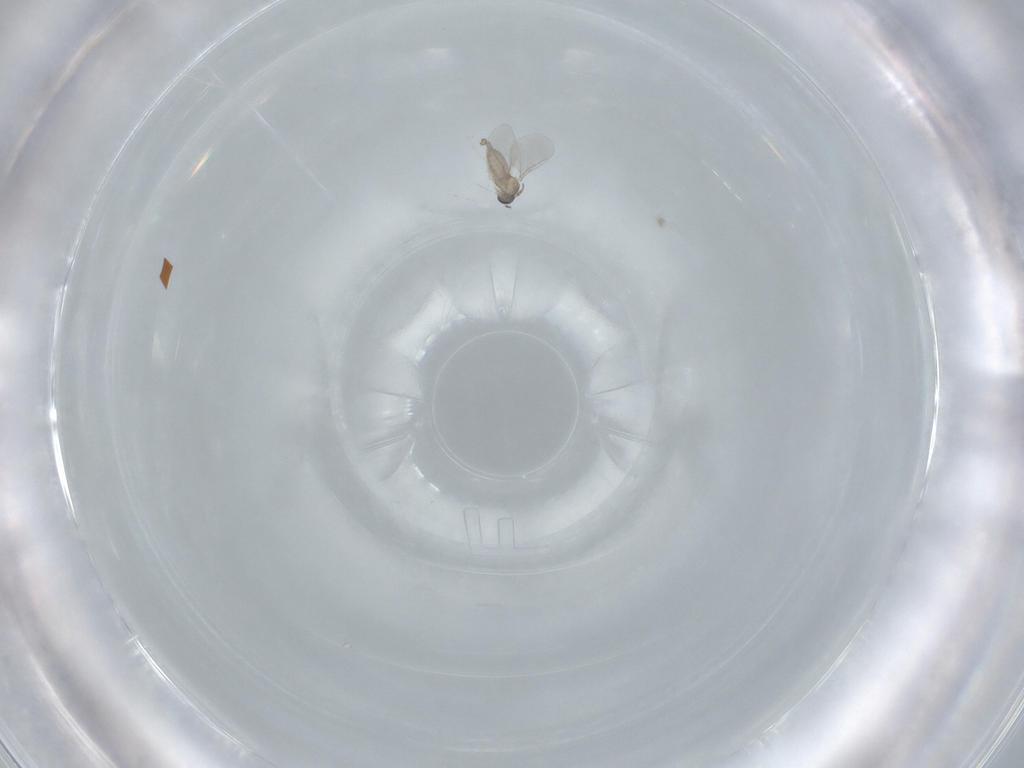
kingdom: Animalia
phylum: Arthropoda
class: Insecta
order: Diptera
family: Cecidomyiidae
